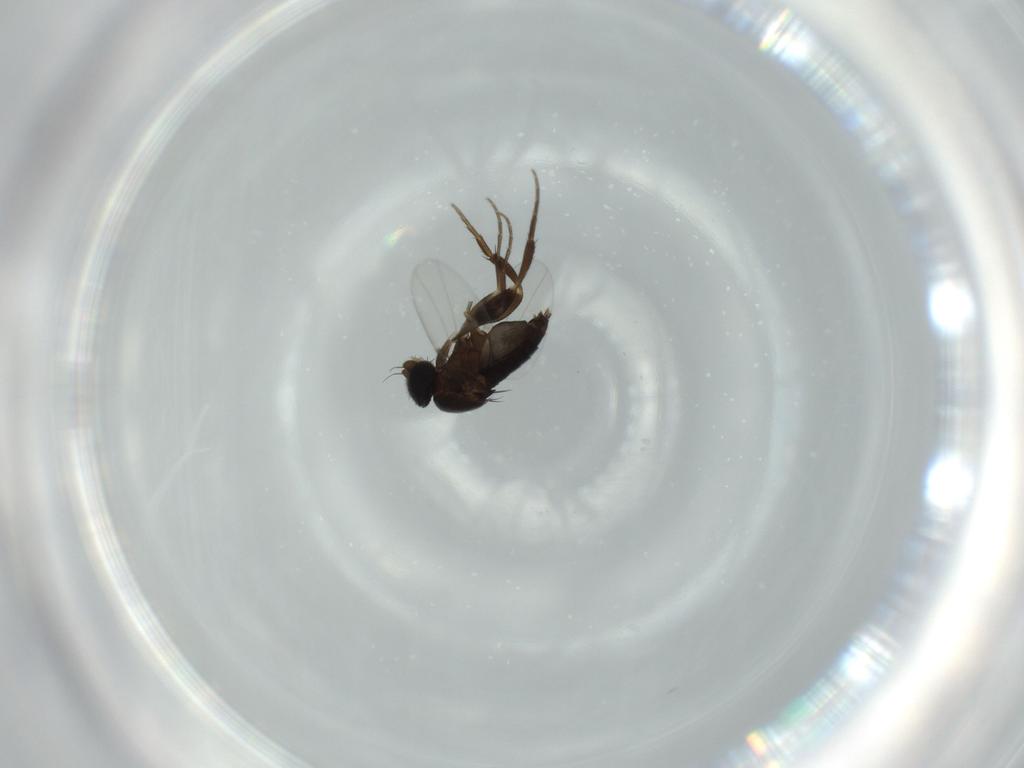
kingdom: Animalia
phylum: Arthropoda
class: Insecta
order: Diptera
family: Phoridae
